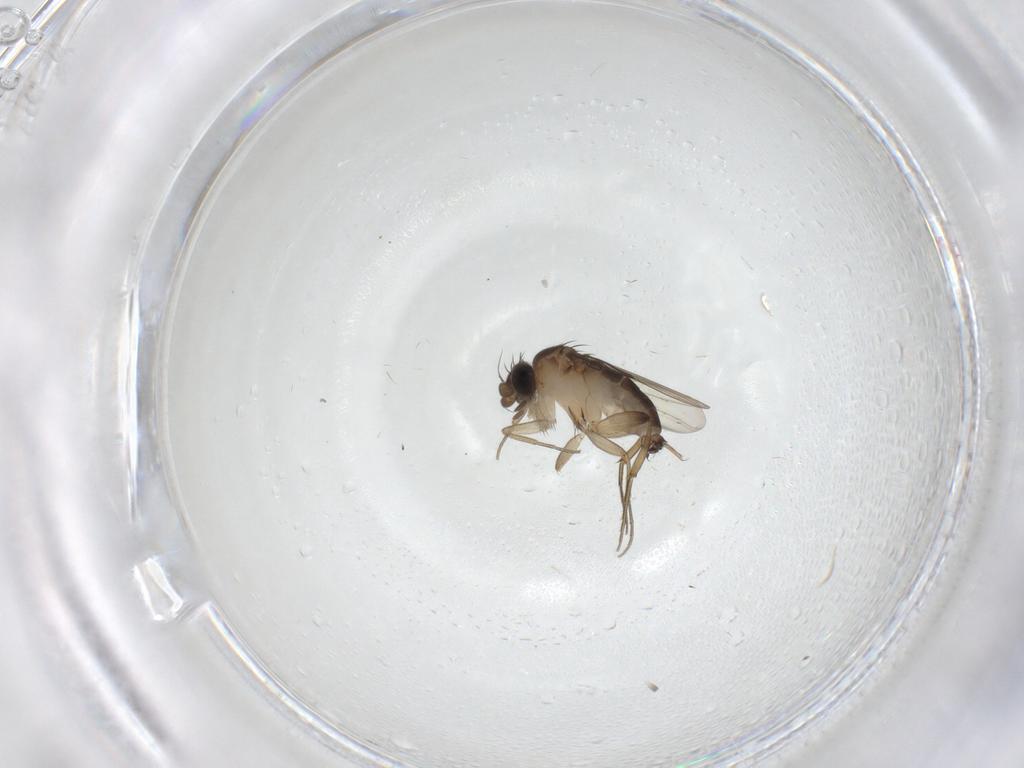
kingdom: Animalia
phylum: Arthropoda
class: Insecta
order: Diptera
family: Phoridae
